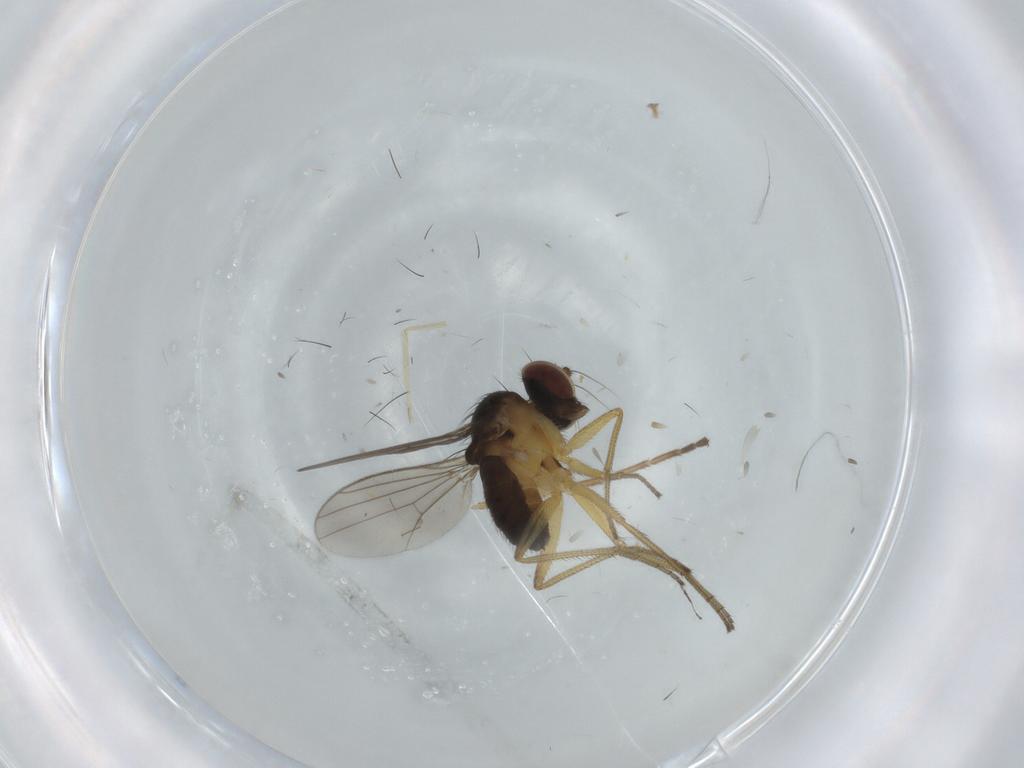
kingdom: Animalia
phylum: Arthropoda
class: Insecta
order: Diptera
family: Dolichopodidae
